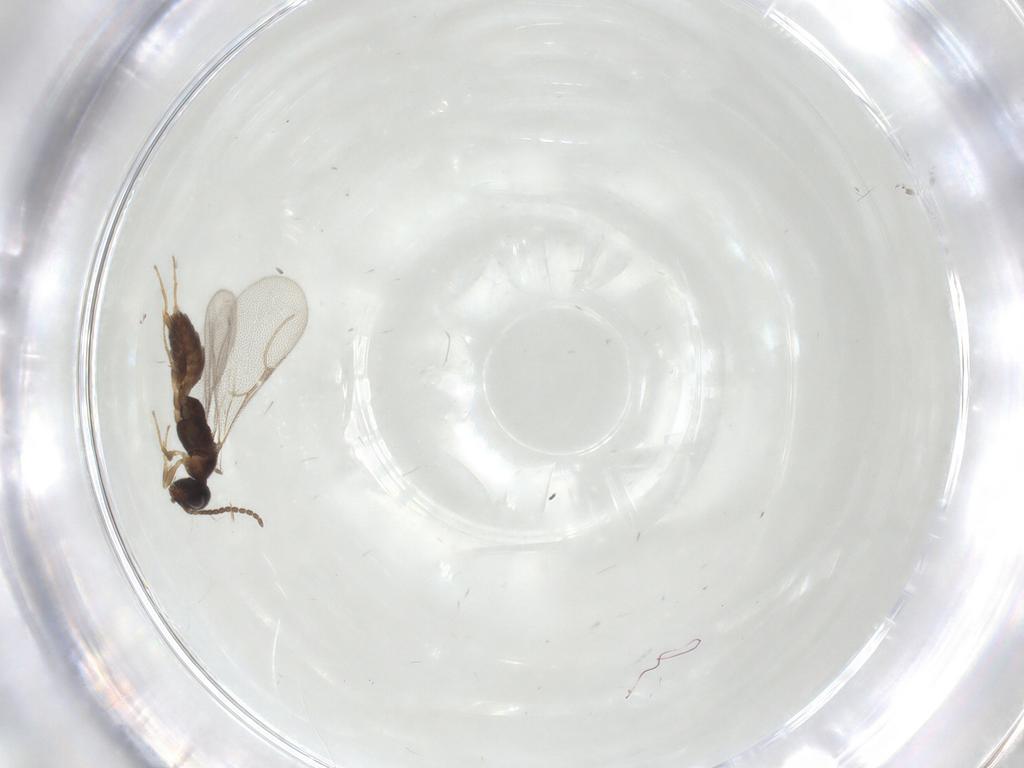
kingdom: Animalia
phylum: Arthropoda
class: Insecta
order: Hymenoptera
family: Bethylidae
